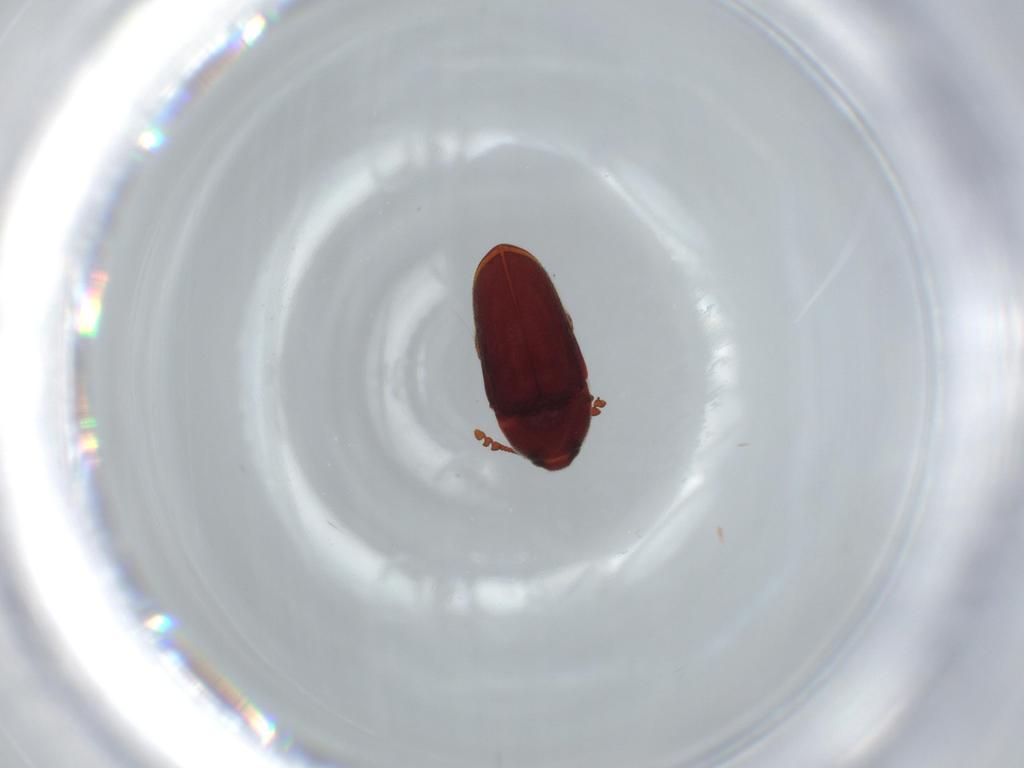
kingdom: Animalia
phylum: Arthropoda
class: Insecta
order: Coleoptera
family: Throscidae
